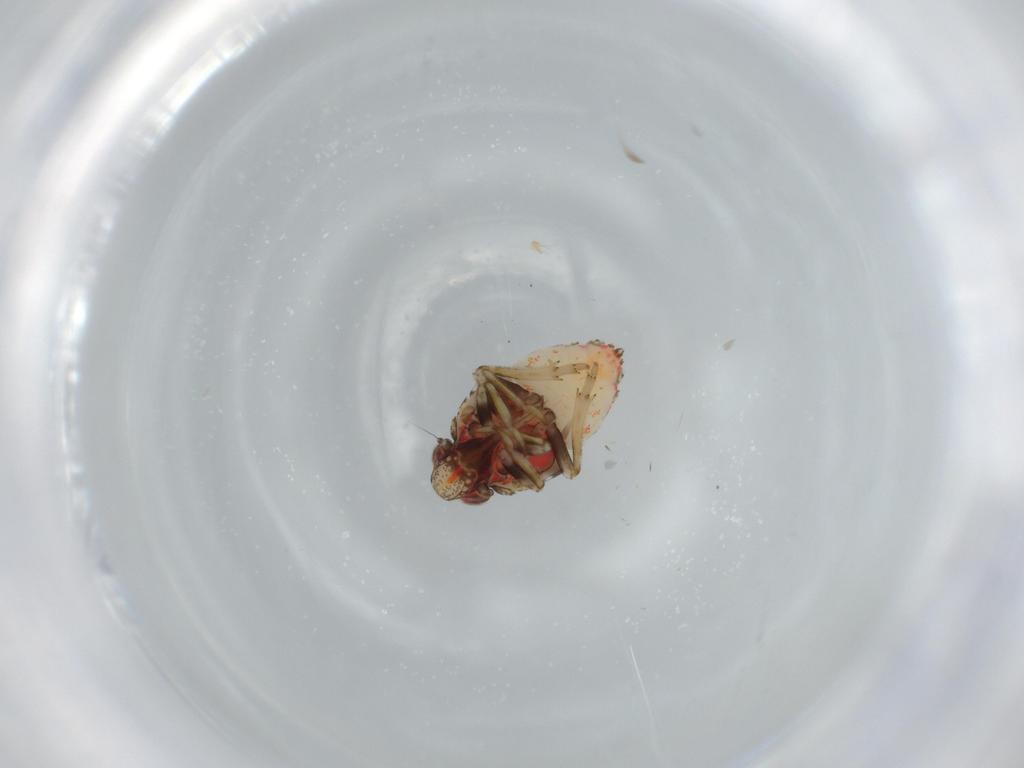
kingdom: Animalia
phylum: Arthropoda
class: Insecta
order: Hemiptera
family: Issidae
